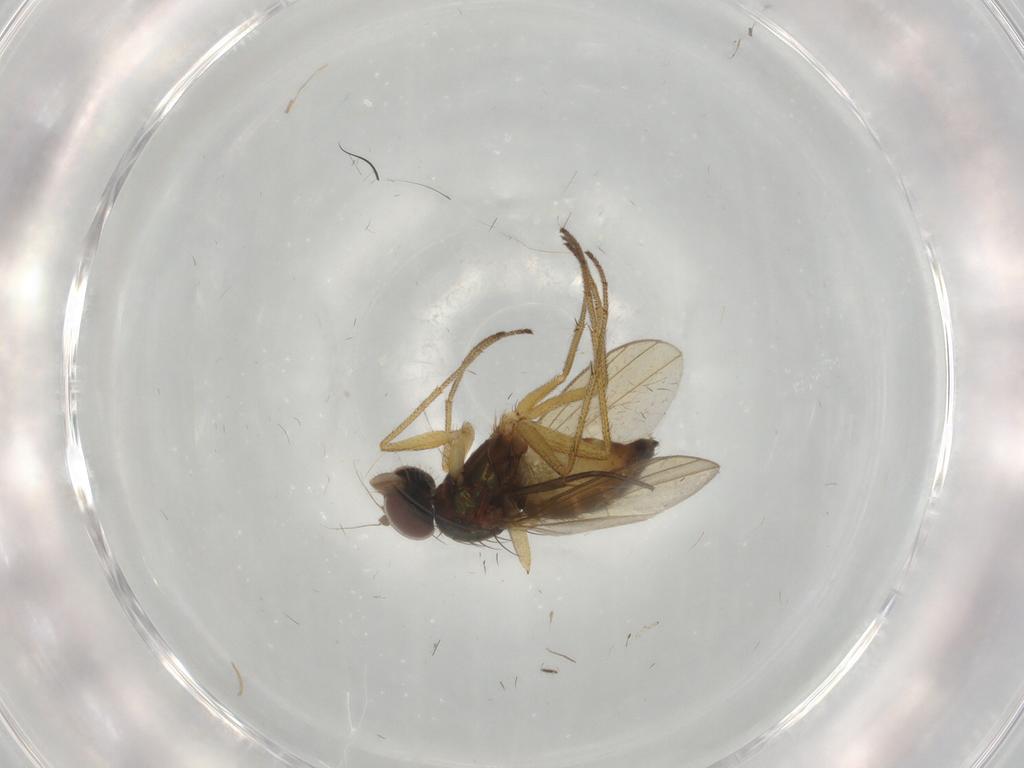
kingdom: Animalia
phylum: Arthropoda
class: Insecta
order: Diptera
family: Dolichopodidae
